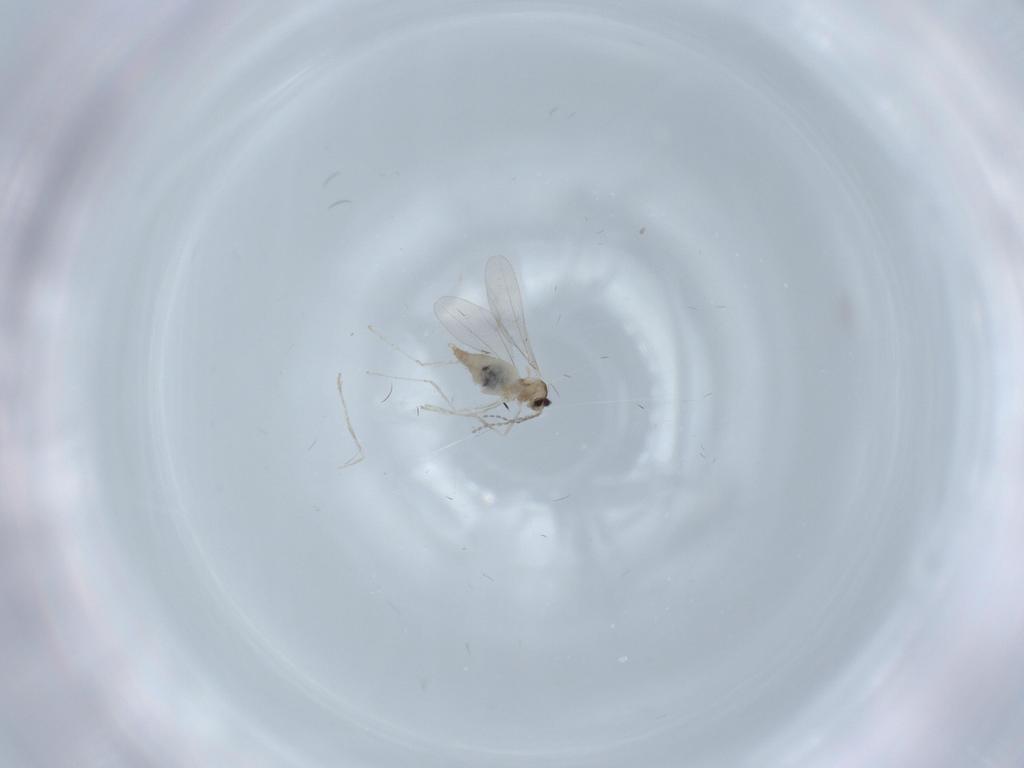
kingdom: Animalia
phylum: Arthropoda
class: Insecta
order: Diptera
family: Cecidomyiidae
